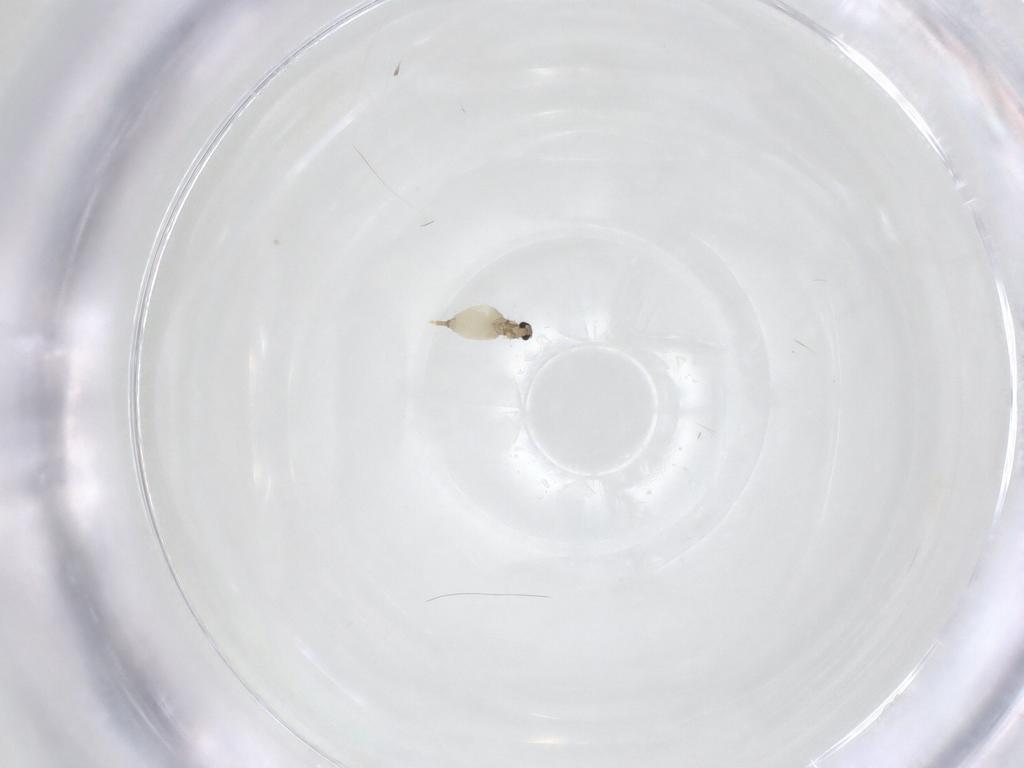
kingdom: Animalia
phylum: Arthropoda
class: Insecta
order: Diptera
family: Cecidomyiidae
